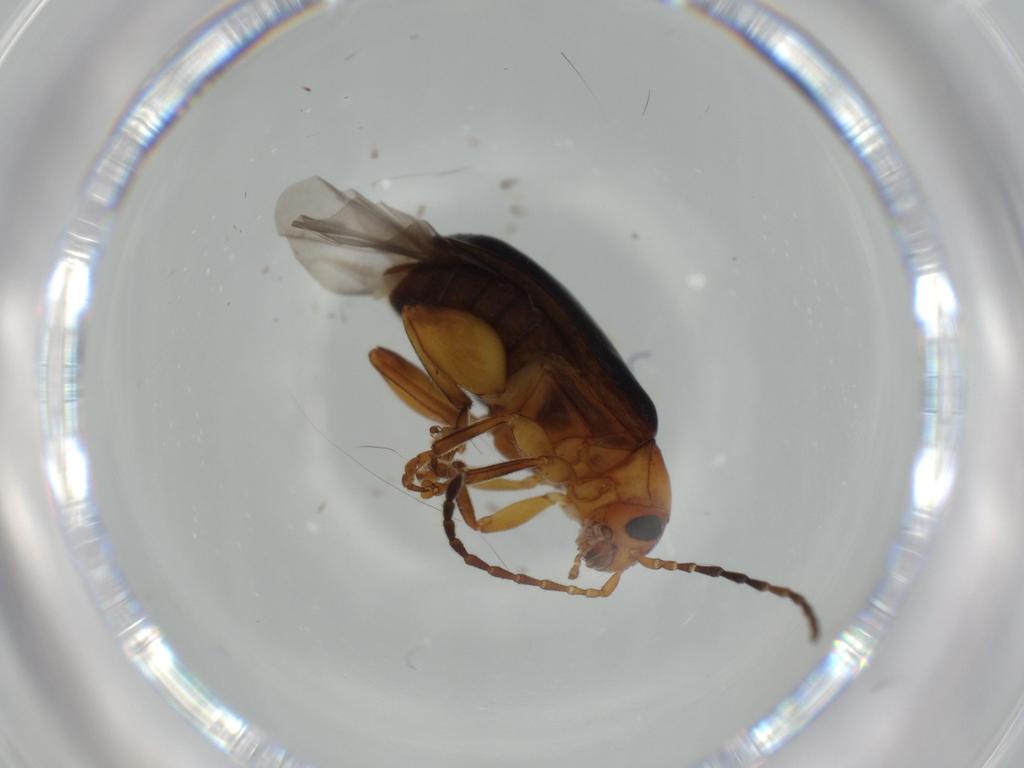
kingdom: Animalia
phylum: Arthropoda
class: Insecta
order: Coleoptera
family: Chrysomelidae
